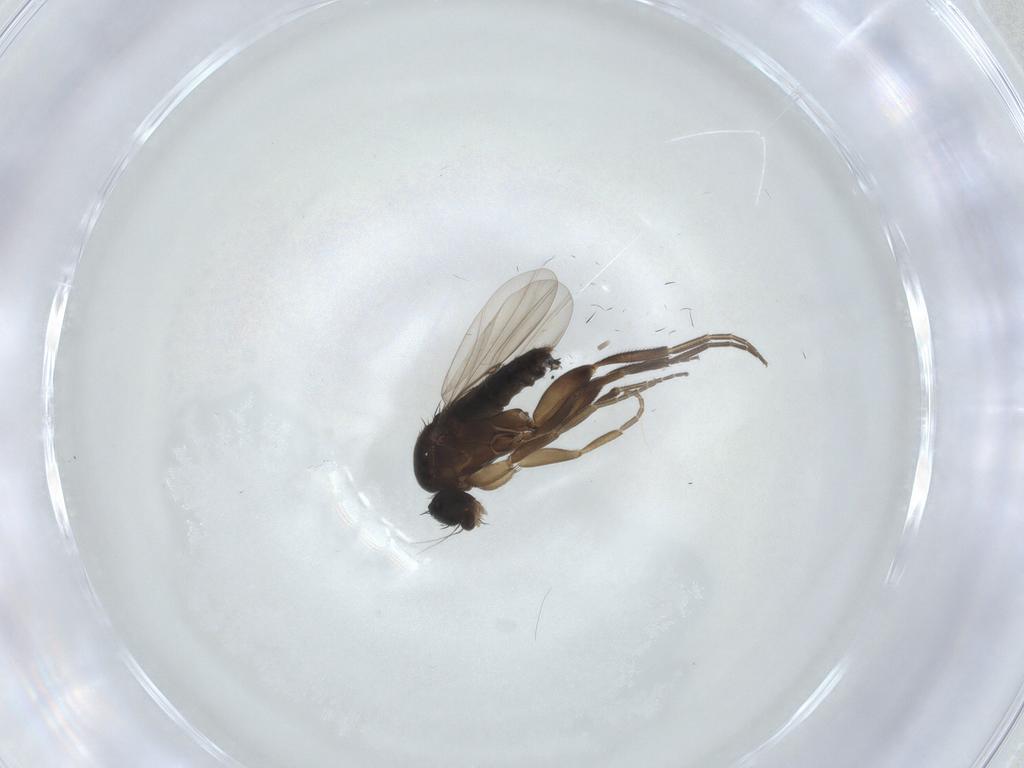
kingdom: Animalia
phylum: Arthropoda
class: Insecta
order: Diptera
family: Phoridae
